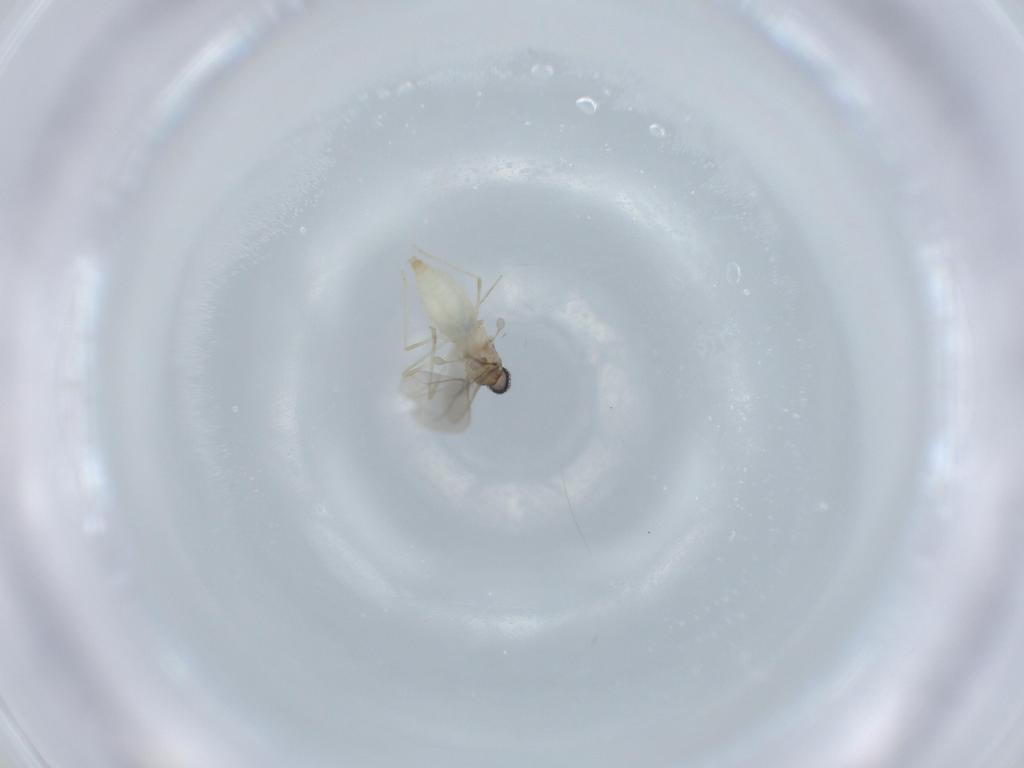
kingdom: Animalia
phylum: Arthropoda
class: Insecta
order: Diptera
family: Cecidomyiidae
